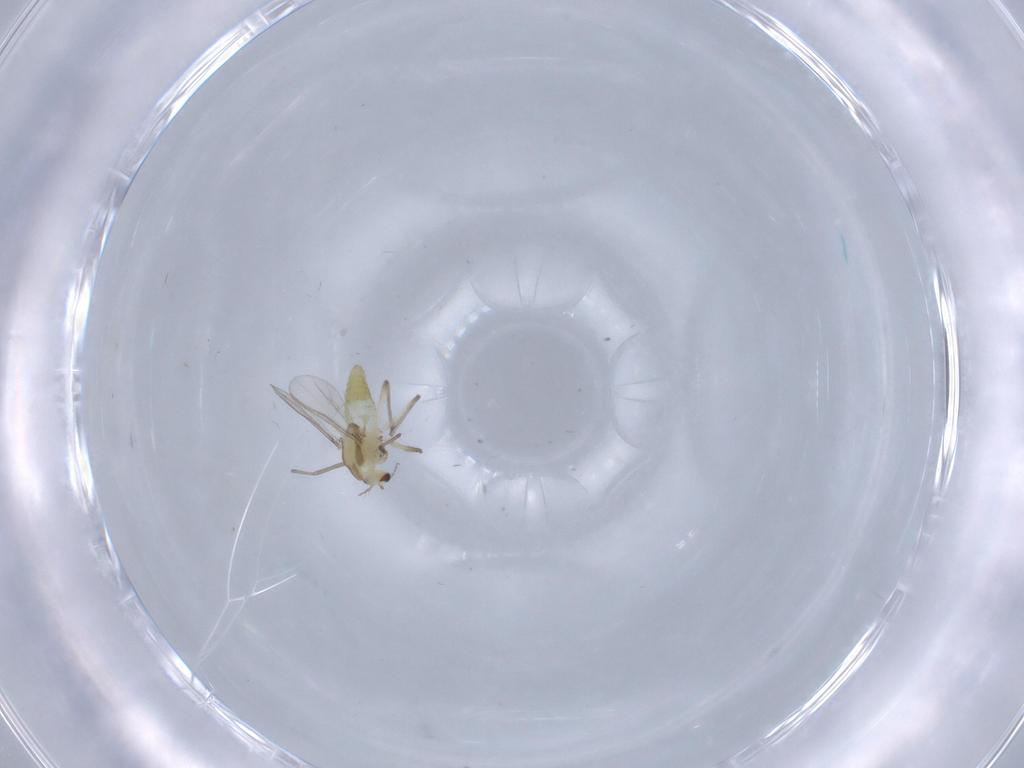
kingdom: Animalia
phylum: Arthropoda
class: Insecta
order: Diptera
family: Chironomidae
